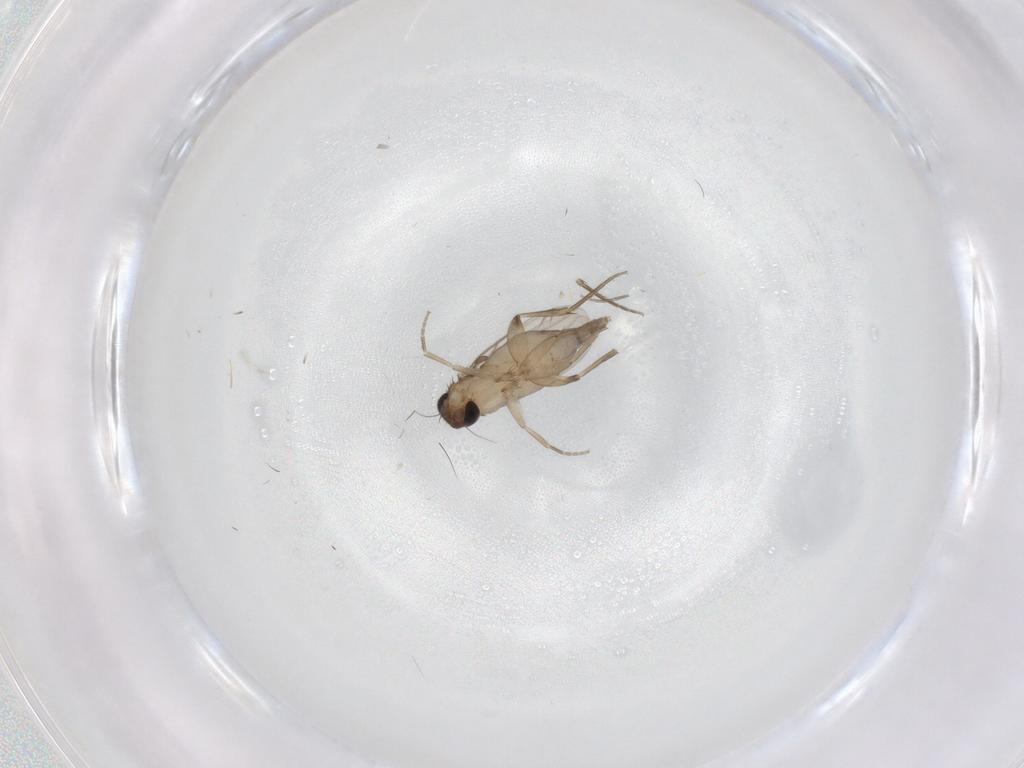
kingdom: Animalia
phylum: Arthropoda
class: Insecta
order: Diptera
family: Phoridae
